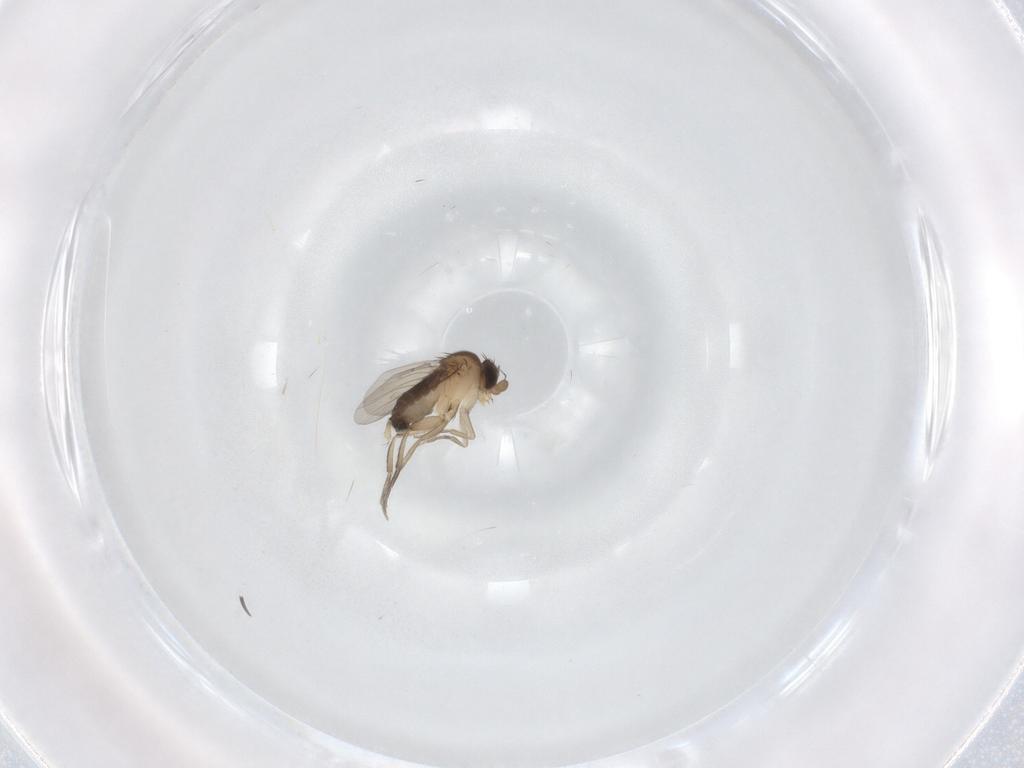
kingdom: Animalia
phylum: Arthropoda
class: Insecta
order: Diptera
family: Phoridae
